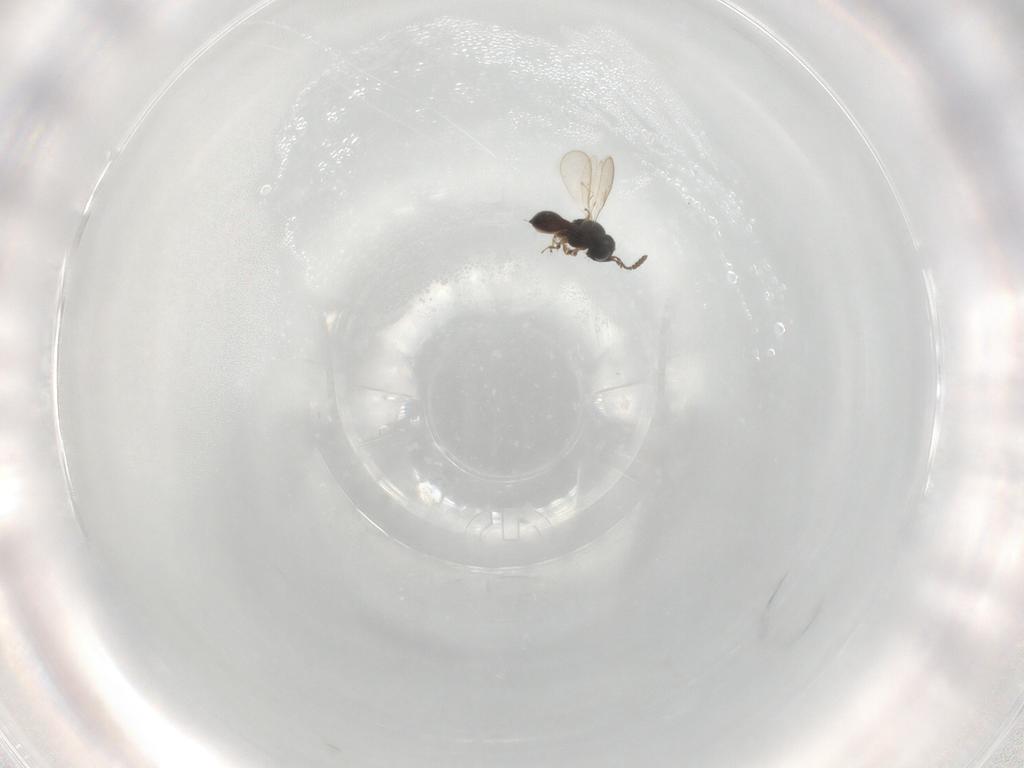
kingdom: Animalia
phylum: Arthropoda
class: Insecta
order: Hymenoptera
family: Scelionidae
